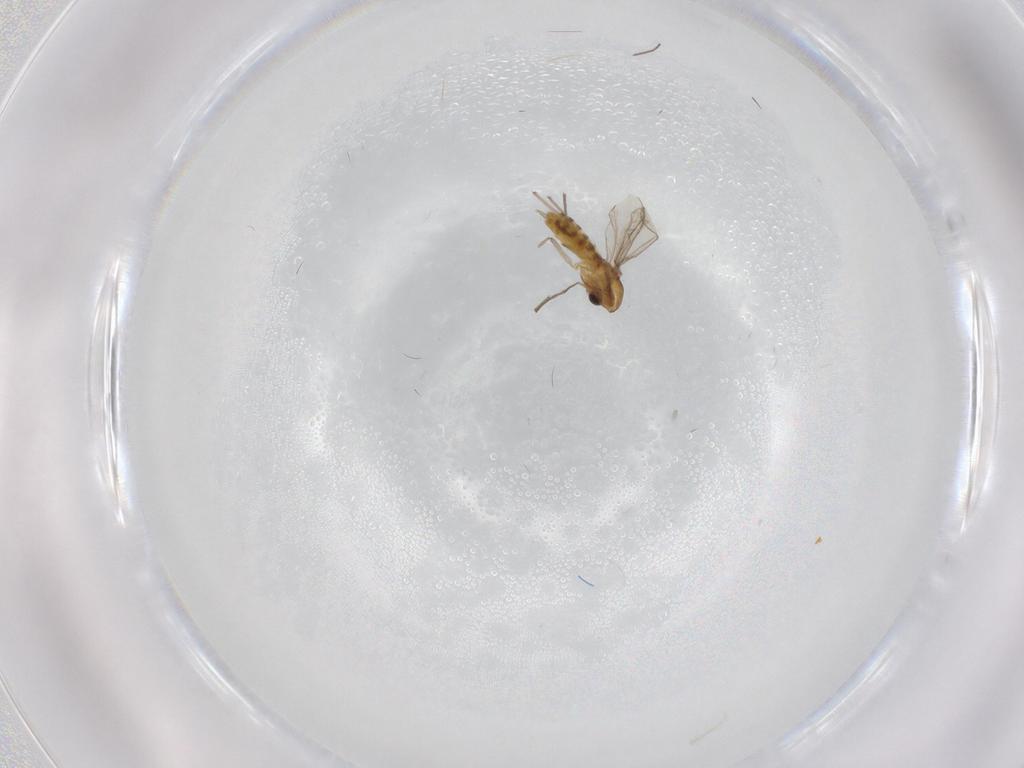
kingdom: Animalia
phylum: Arthropoda
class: Insecta
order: Diptera
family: Chironomidae
